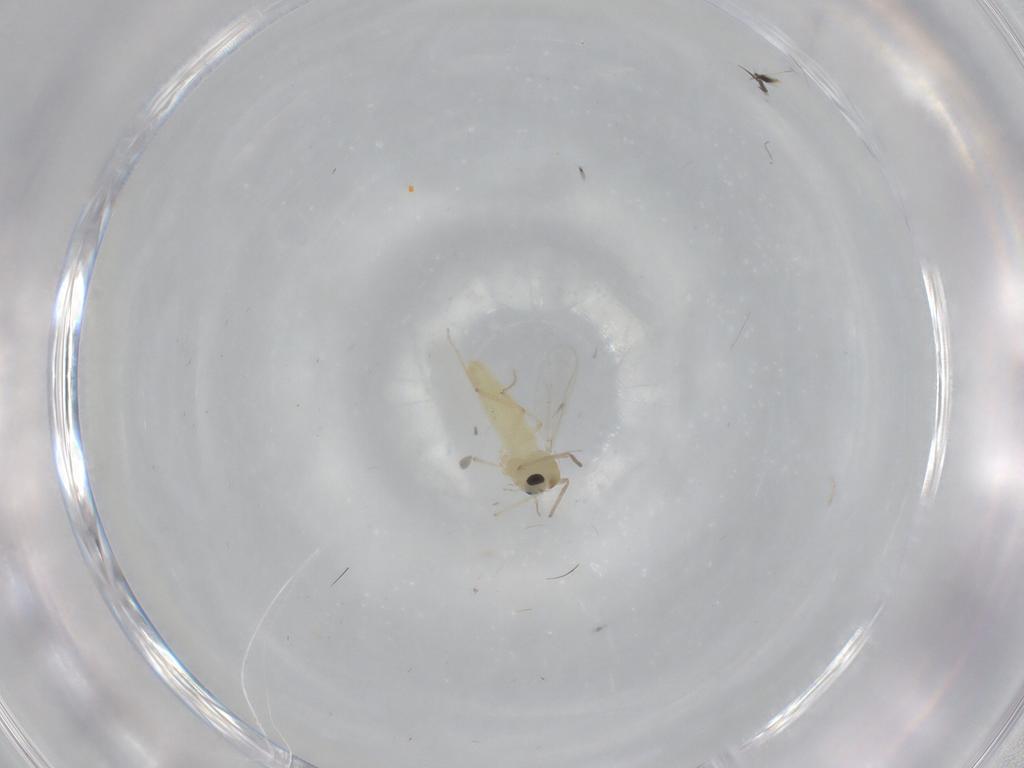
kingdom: Animalia
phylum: Arthropoda
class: Insecta
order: Diptera
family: Chironomidae
